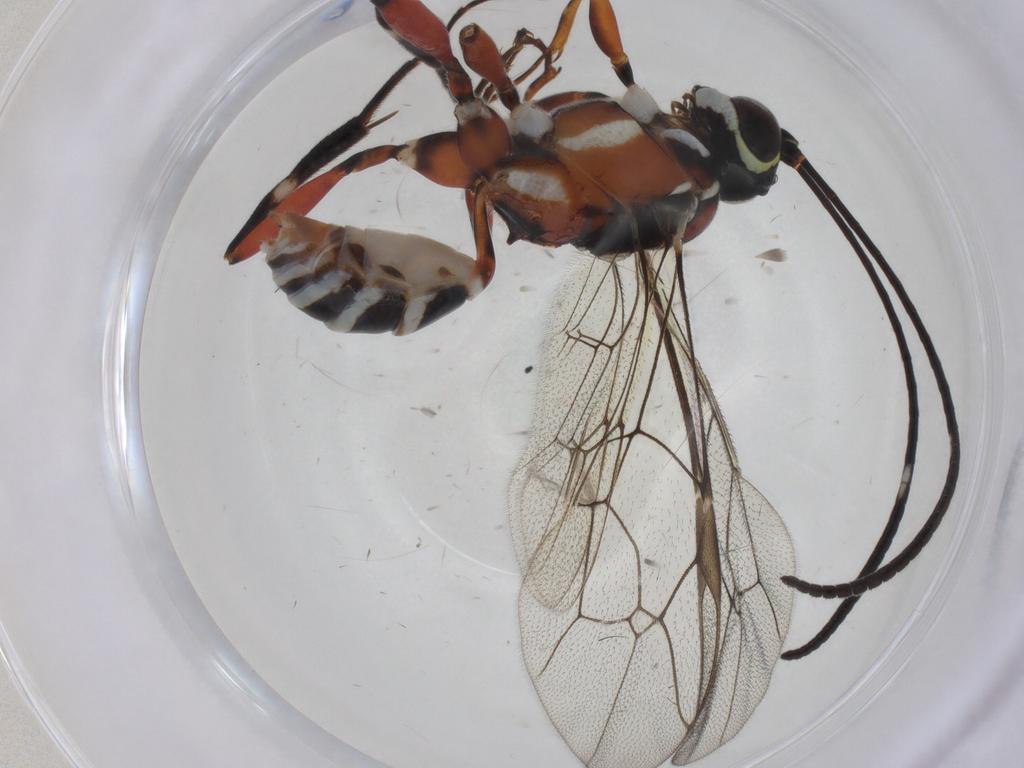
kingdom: Animalia
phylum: Arthropoda
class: Insecta
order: Hymenoptera
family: Ichneumonidae
